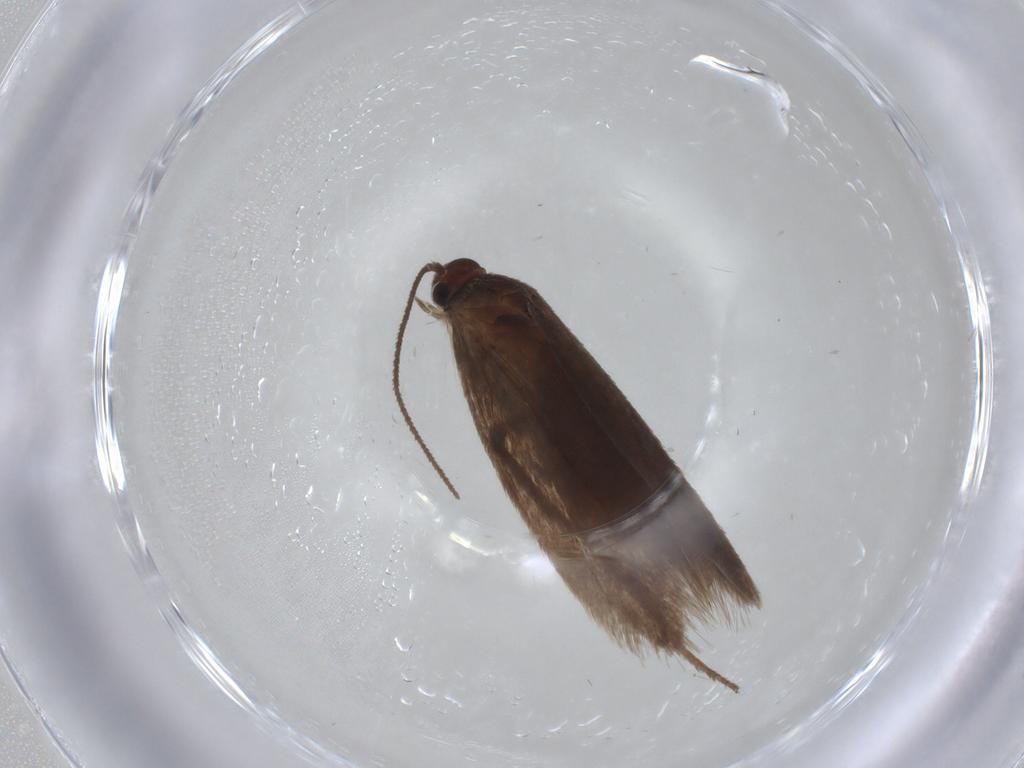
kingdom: Animalia
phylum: Arthropoda
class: Insecta
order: Lepidoptera
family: Limacodidae
